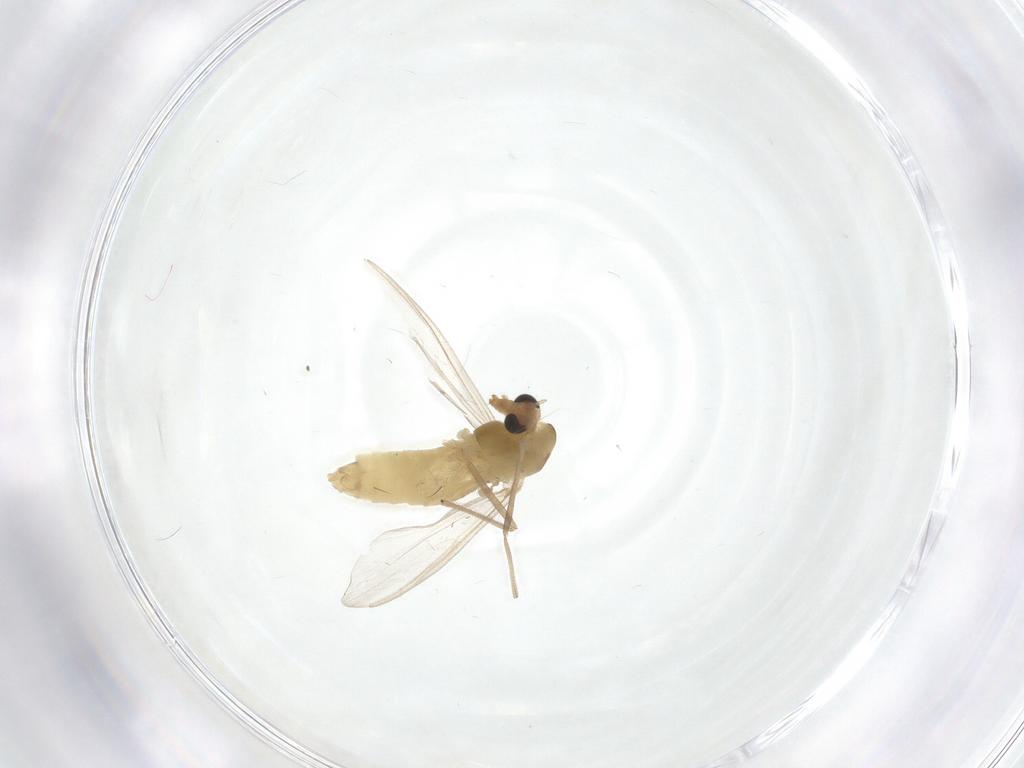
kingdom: Animalia
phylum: Arthropoda
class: Insecta
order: Diptera
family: Chironomidae
